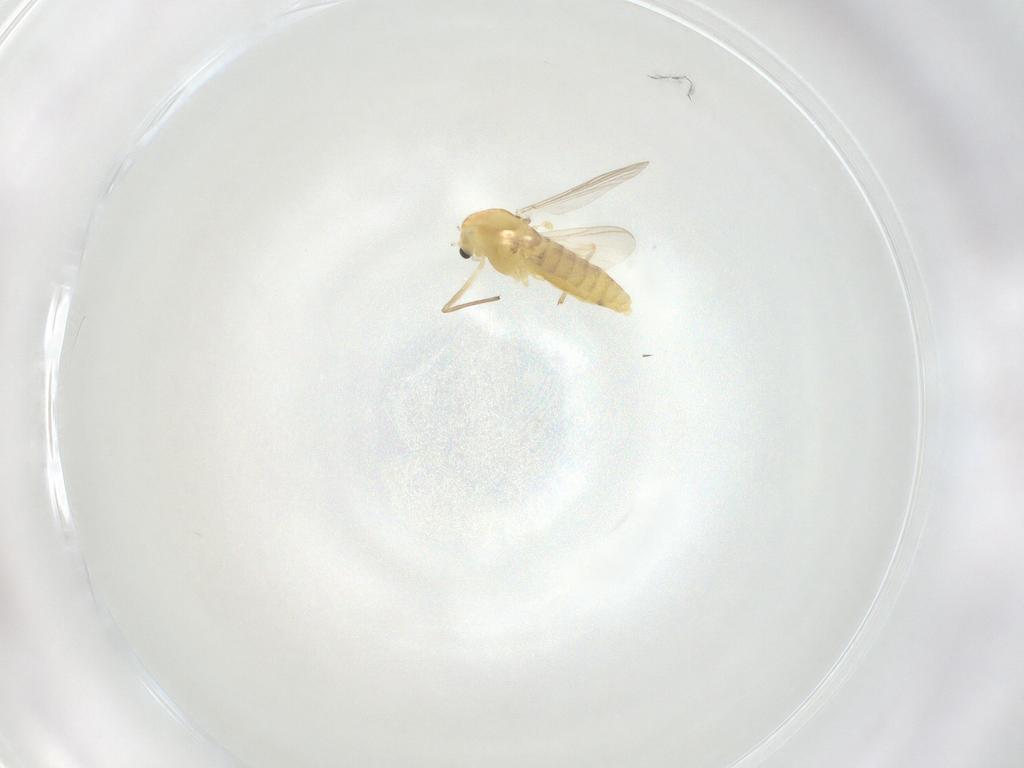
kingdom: Animalia
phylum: Arthropoda
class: Insecta
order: Diptera
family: Chironomidae
